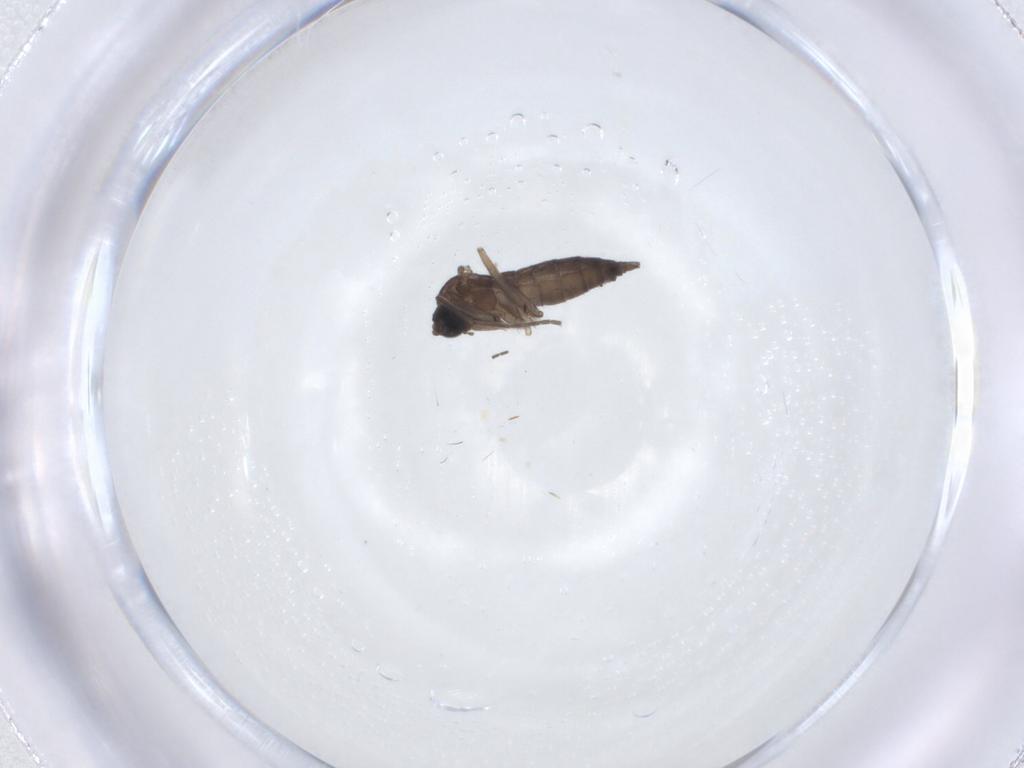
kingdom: Animalia
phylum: Arthropoda
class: Insecta
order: Diptera
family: Sciaridae
